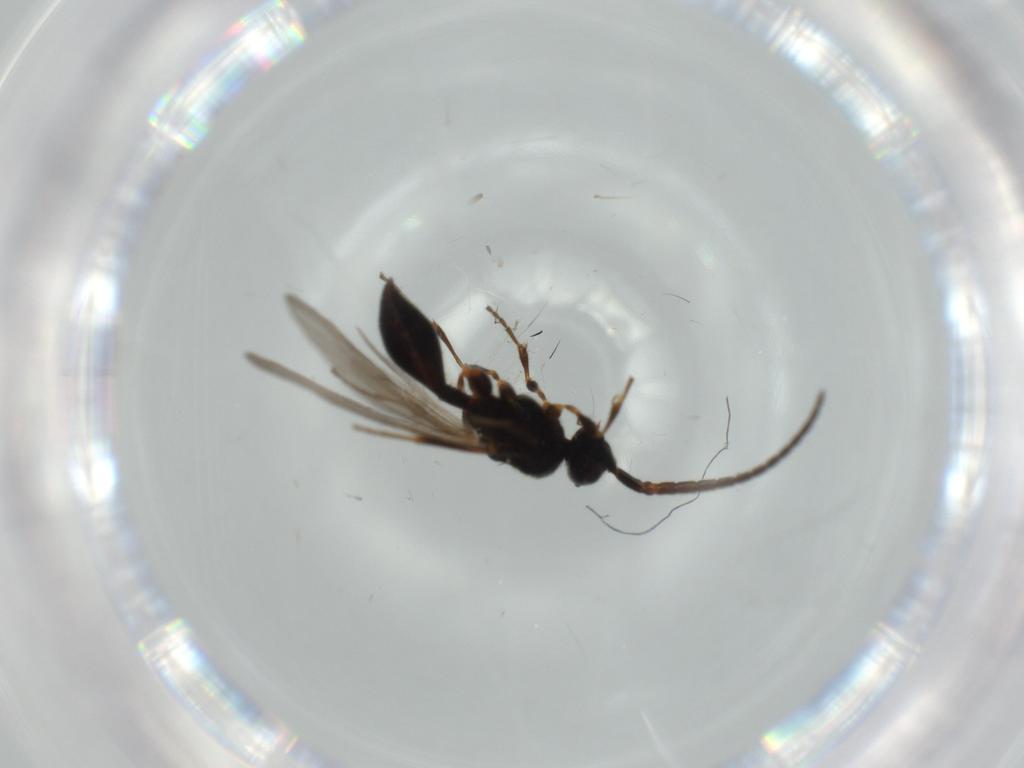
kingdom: Animalia
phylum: Arthropoda
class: Insecta
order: Hymenoptera
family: Diapriidae
